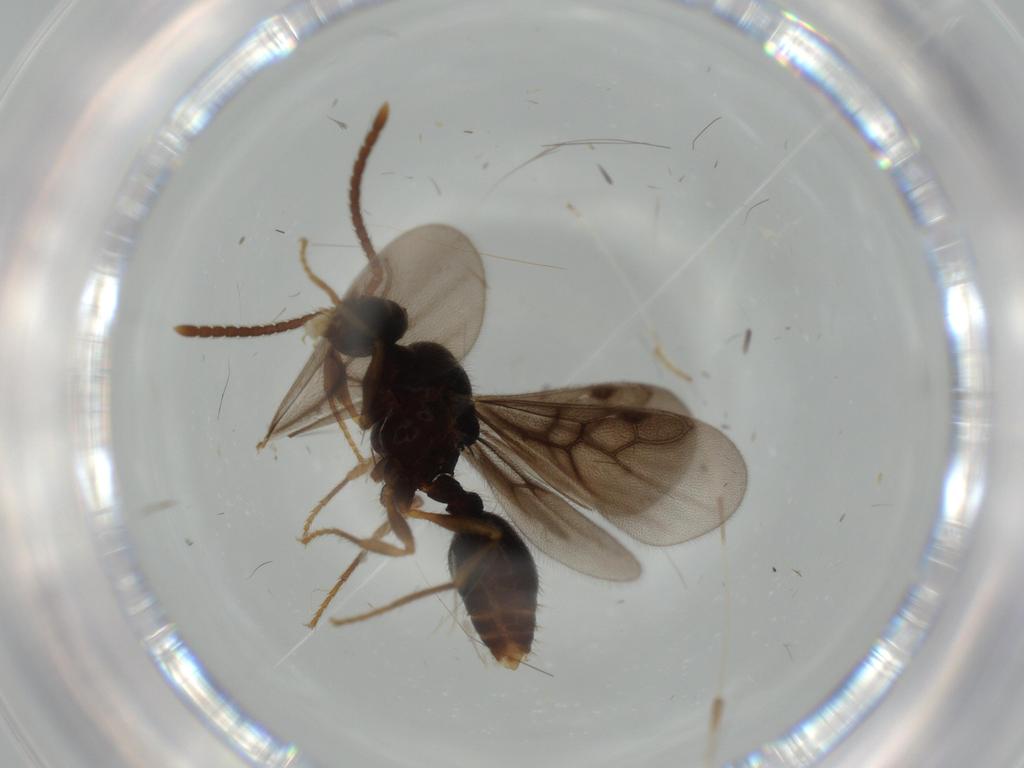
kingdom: Animalia
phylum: Arthropoda
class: Insecta
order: Hymenoptera
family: Formicidae
